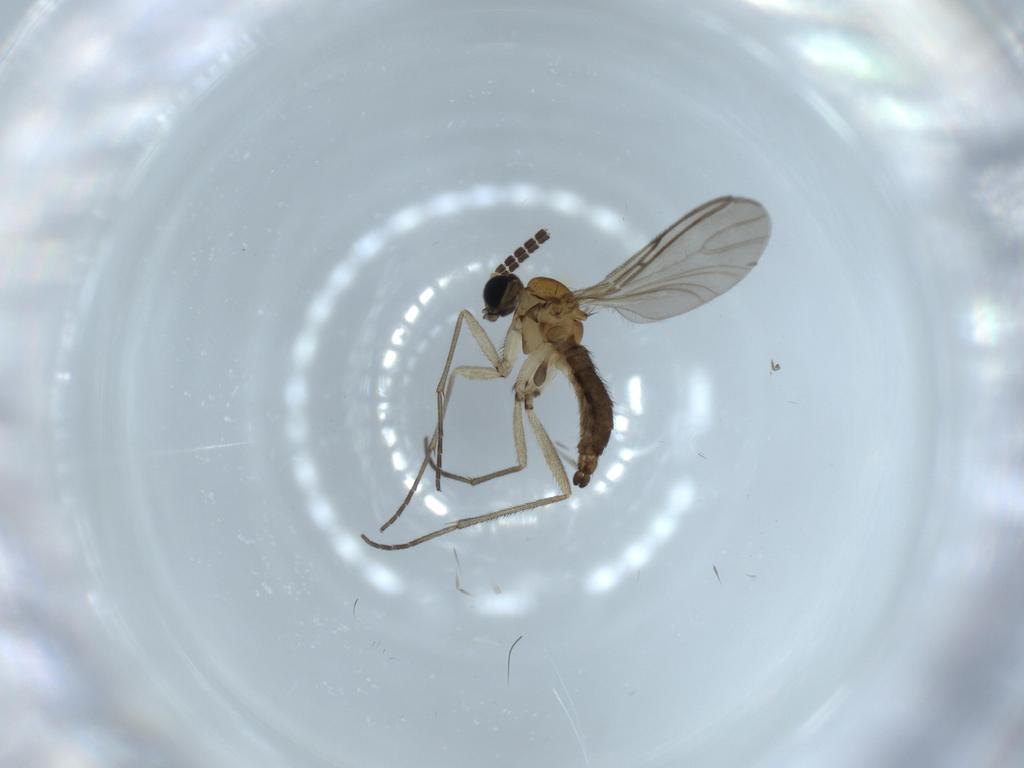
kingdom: Animalia
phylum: Arthropoda
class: Insecta
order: Diptera
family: Sciaridae
